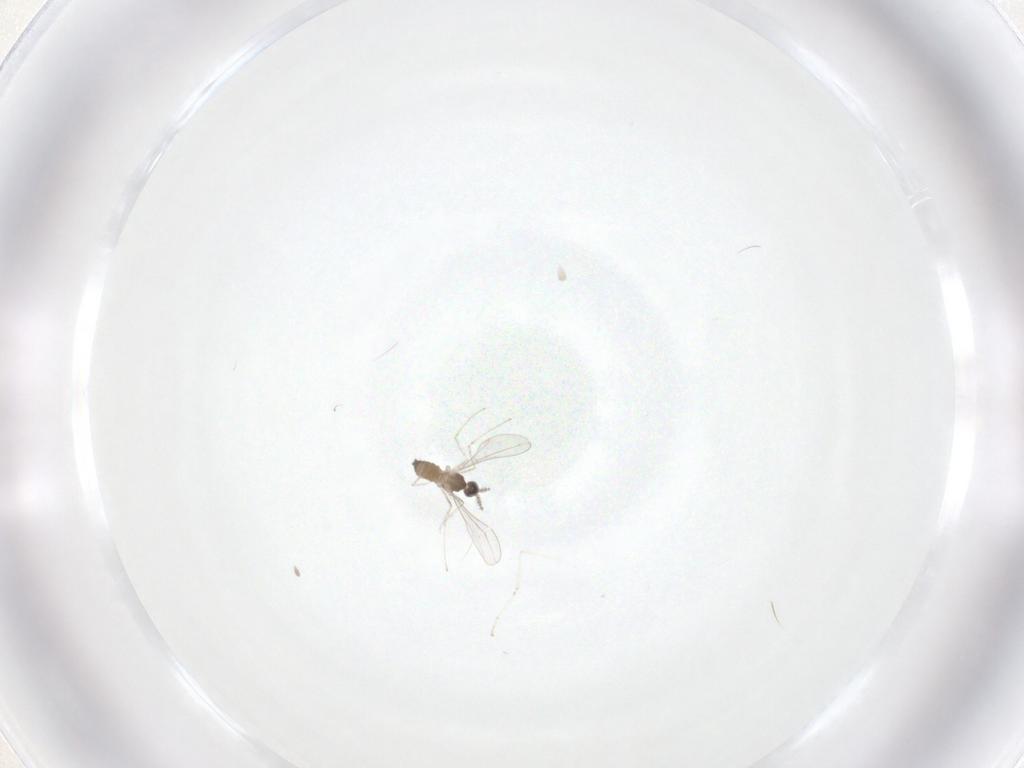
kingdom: Animalia
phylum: Arthropoda
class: Insecta
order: Diptera
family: Cecidomyiidae
